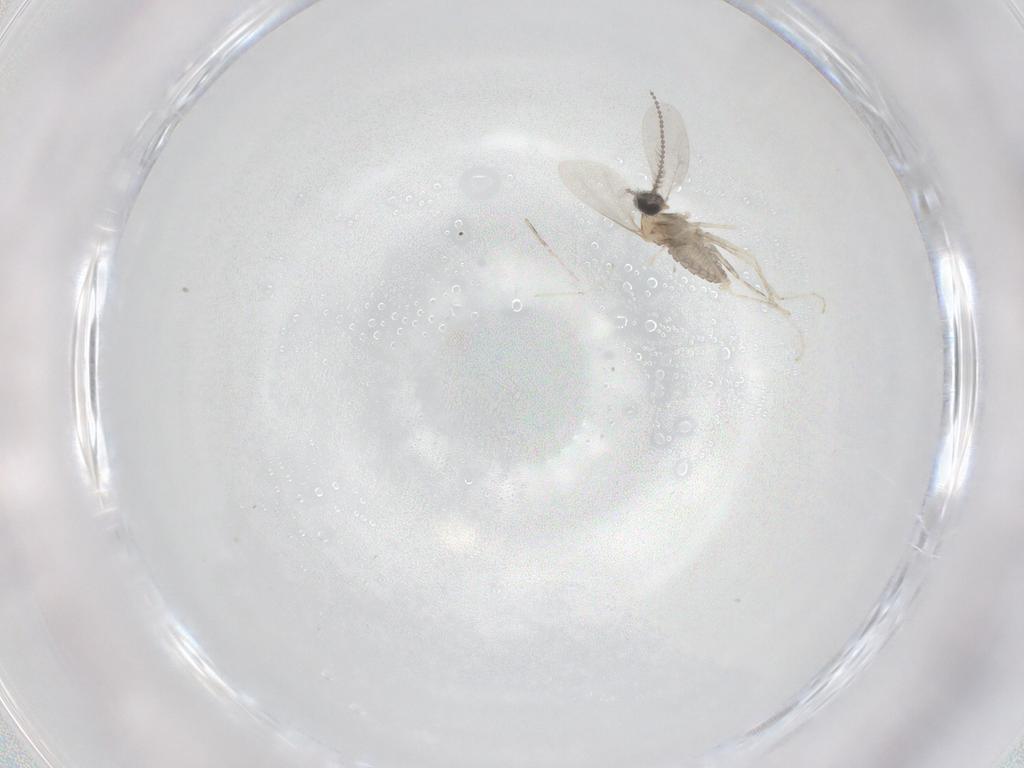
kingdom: Animalia
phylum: Arthropoda
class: Insecta
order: Diptera
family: Cecidomyiidae
